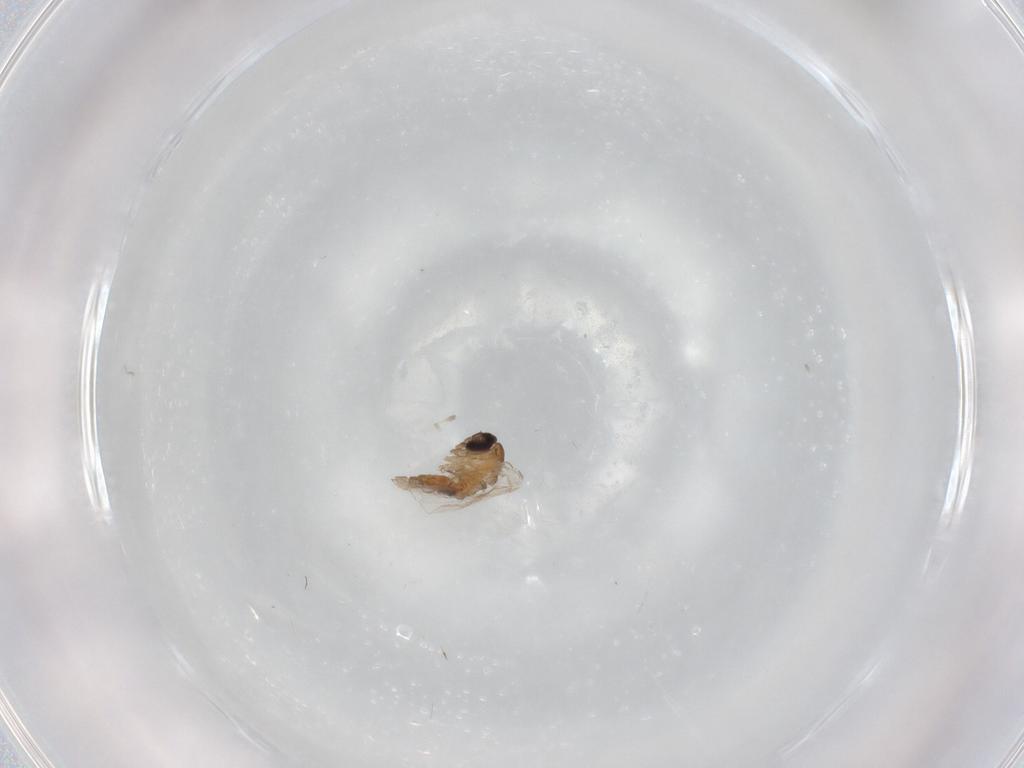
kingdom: Animalia
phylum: Arthropoda
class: Insecta
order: Diptera
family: Psychodidae
